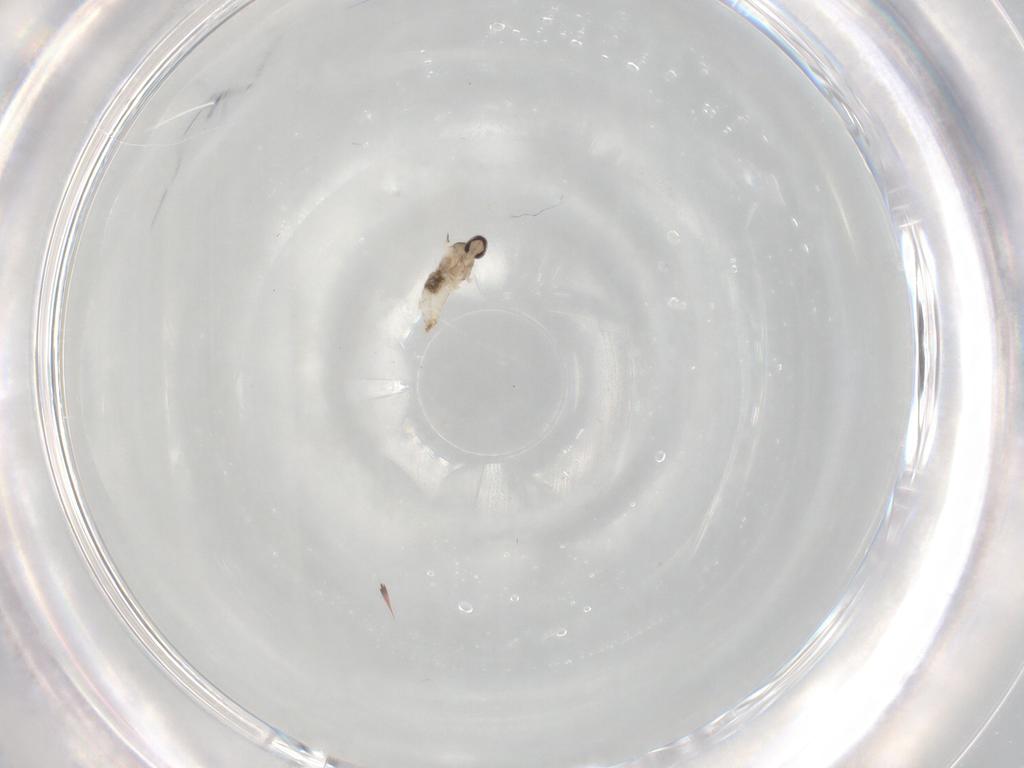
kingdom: Animalia
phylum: Arthropoda
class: Insecta
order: Diptera
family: Cecidomyiidae
